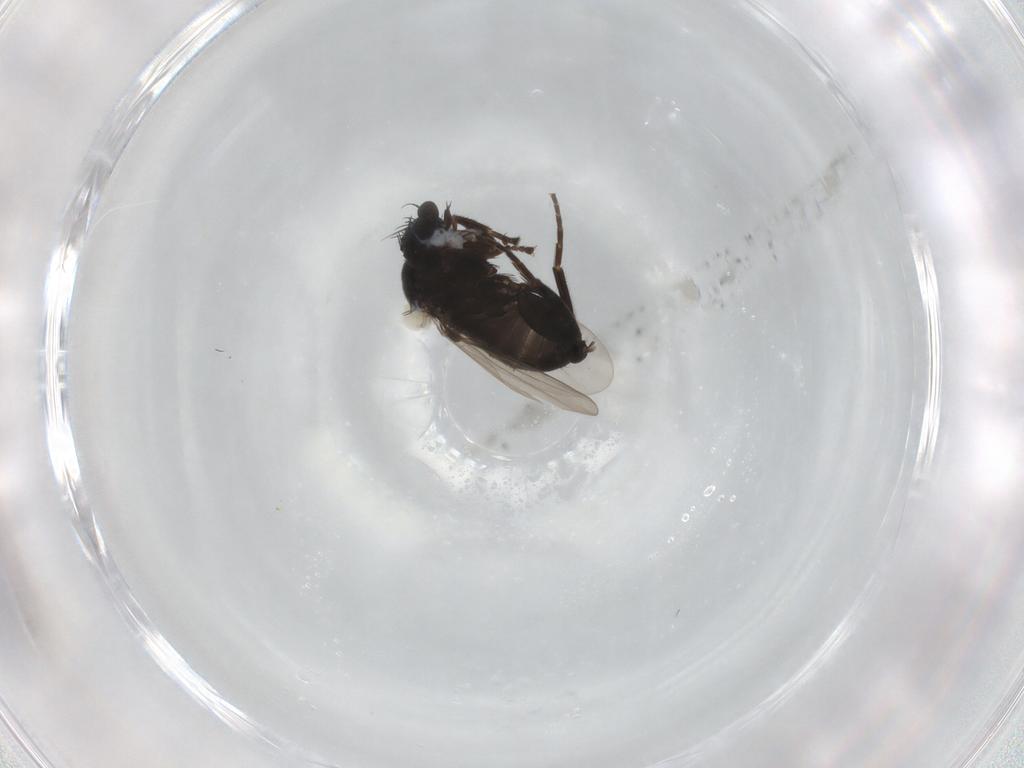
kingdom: Animalia
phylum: Arthropoda
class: Insecta
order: Diptera
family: Phoridae
